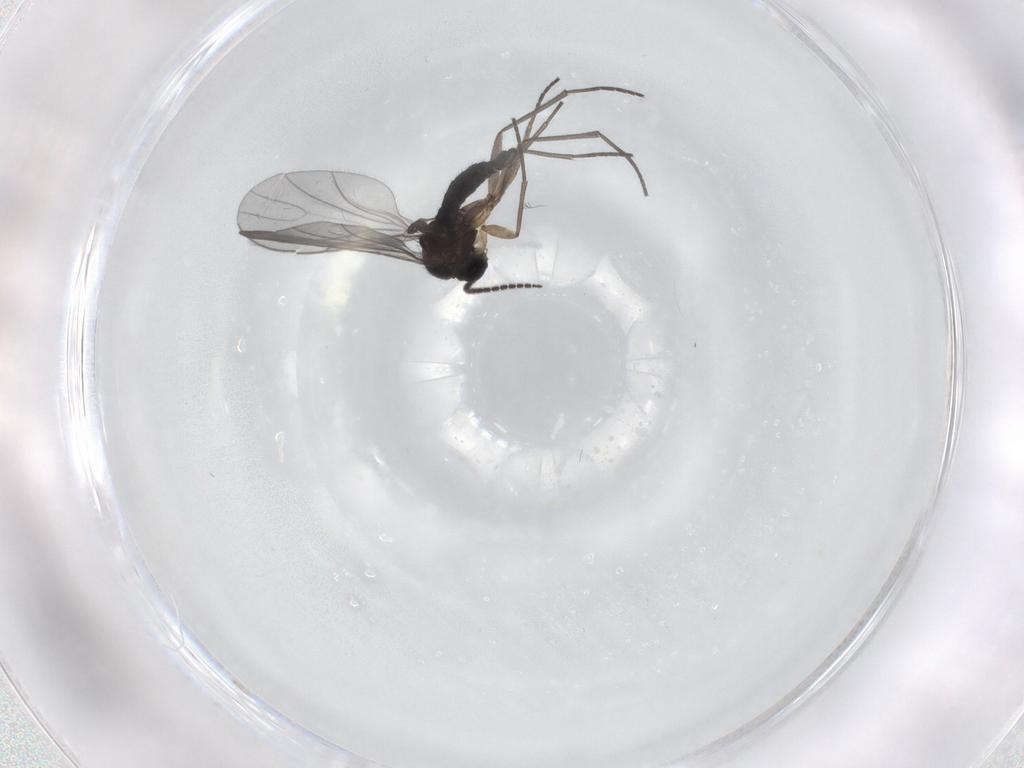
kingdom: Animalia
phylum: Arthropoda
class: Insecta
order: Diptera
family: Sciaridae
